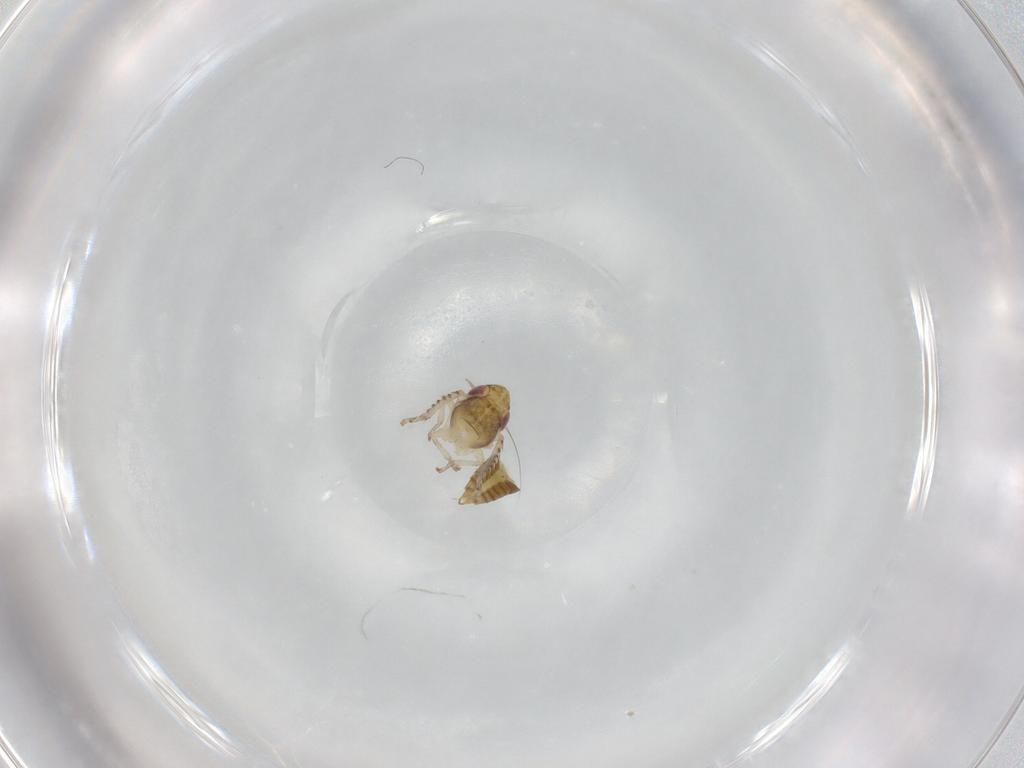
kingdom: Animalia
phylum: Arthropoda
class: Insecta
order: Hemiptera
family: Cicadellidae
